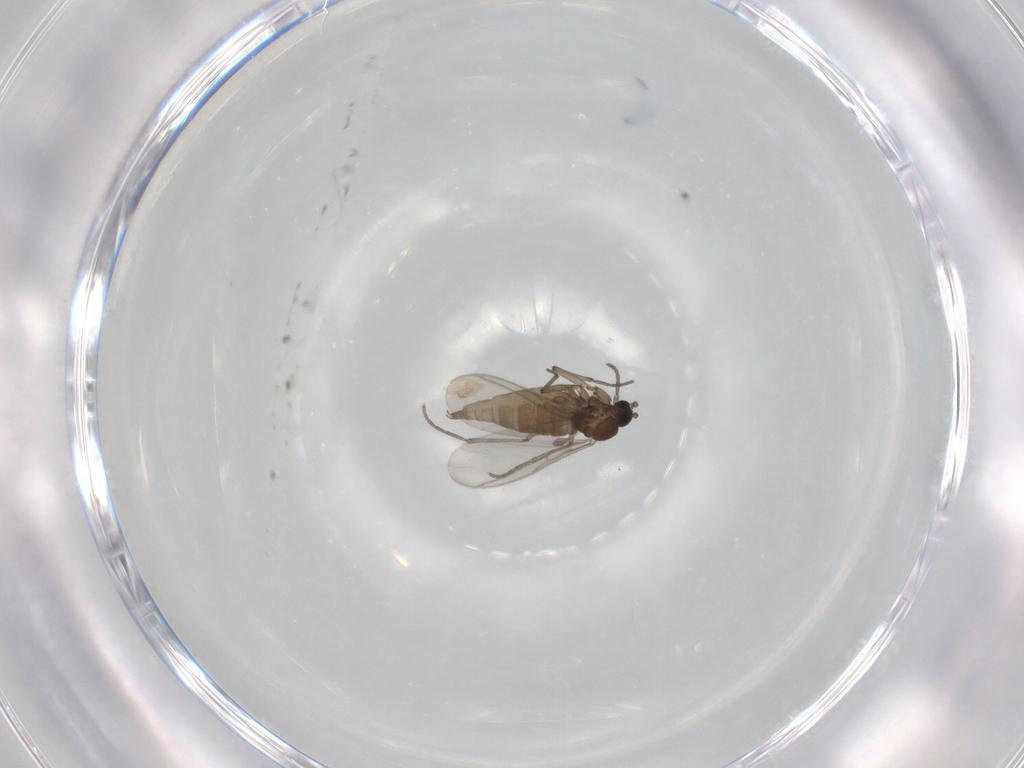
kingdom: Animalia
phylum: Arthropoda
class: Insecta
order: Diptera
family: Sciaridae
